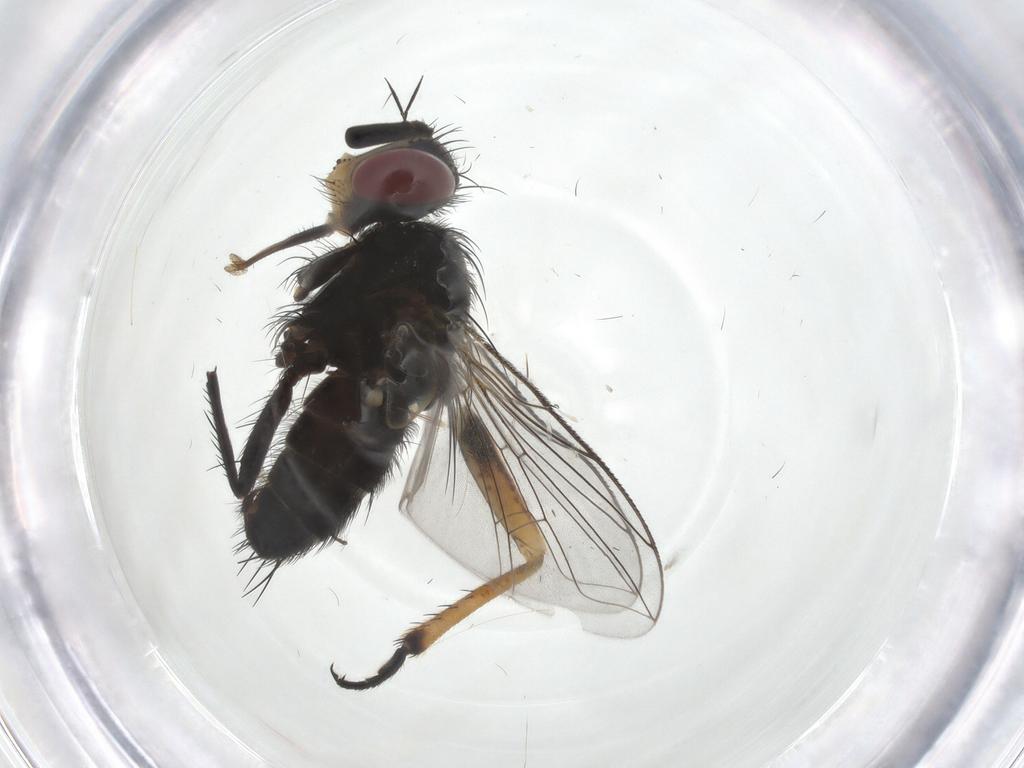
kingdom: Animalia
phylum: Arthropoda
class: Insecta
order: Diptera
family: Tachinidae
